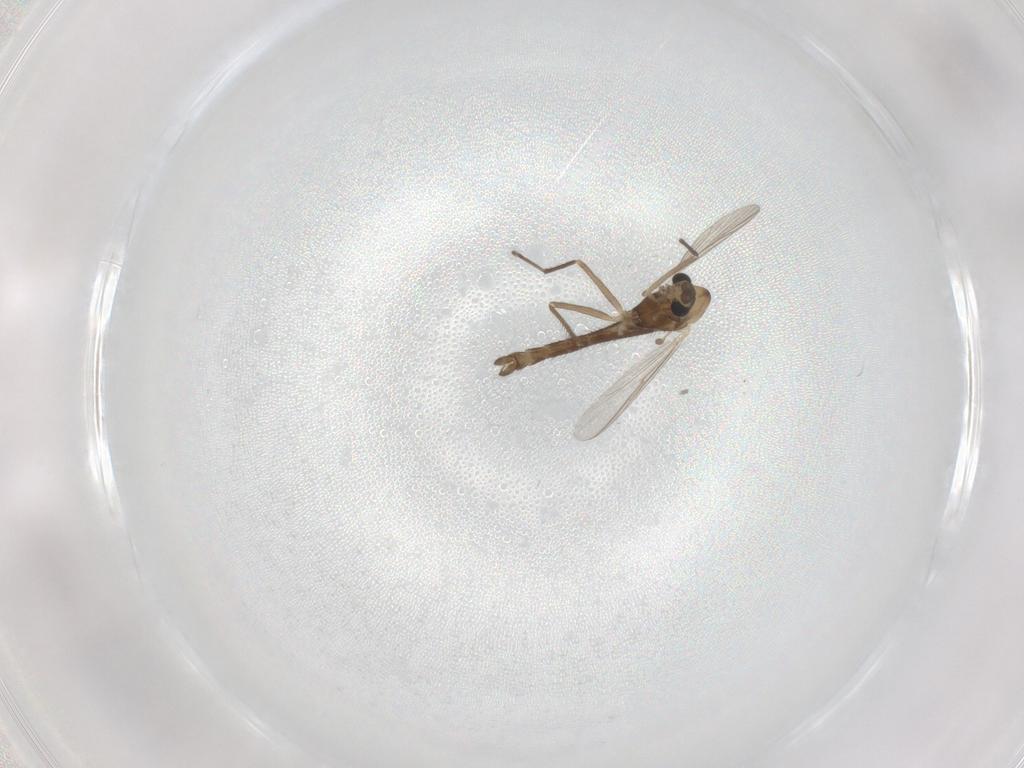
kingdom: Animalia
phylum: Arthropoda
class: Insecta
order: Diptera
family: Chironomidae
